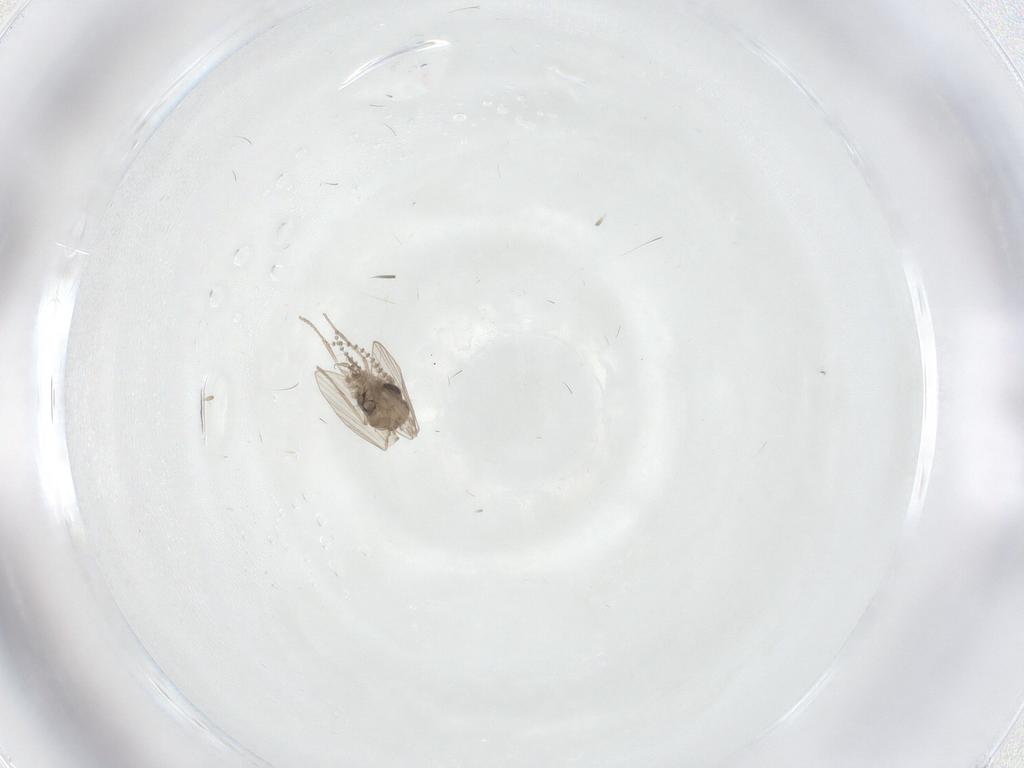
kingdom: Animalia
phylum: Arthropoda
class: Insecta
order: Diptera
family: Psychodidae
